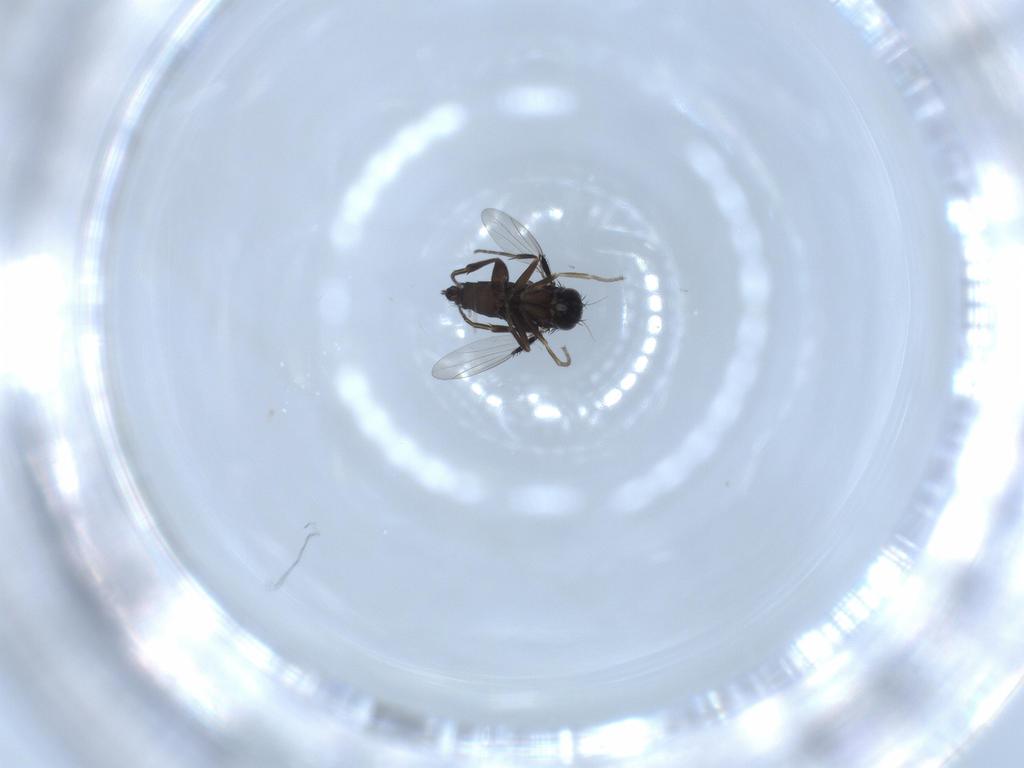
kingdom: Animalia
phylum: Arthropoda
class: Insecta
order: Diptera
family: Phoridae
